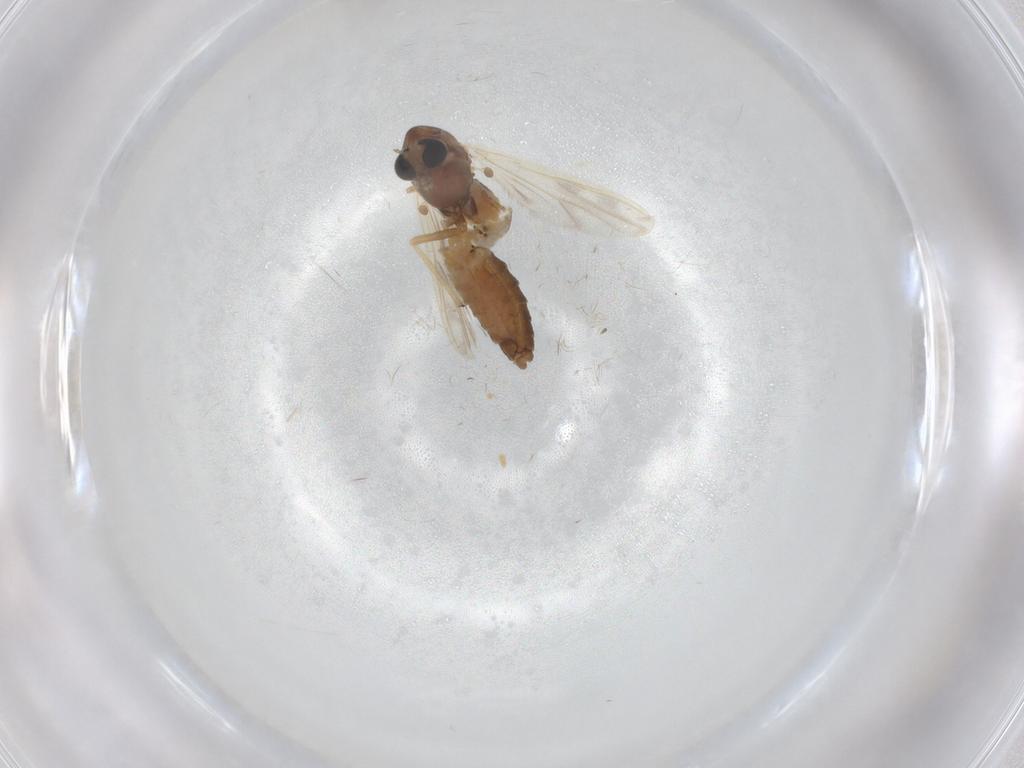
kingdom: Animalia
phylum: Arthropoda
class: Insecta
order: Diptera
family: Chironomidae
